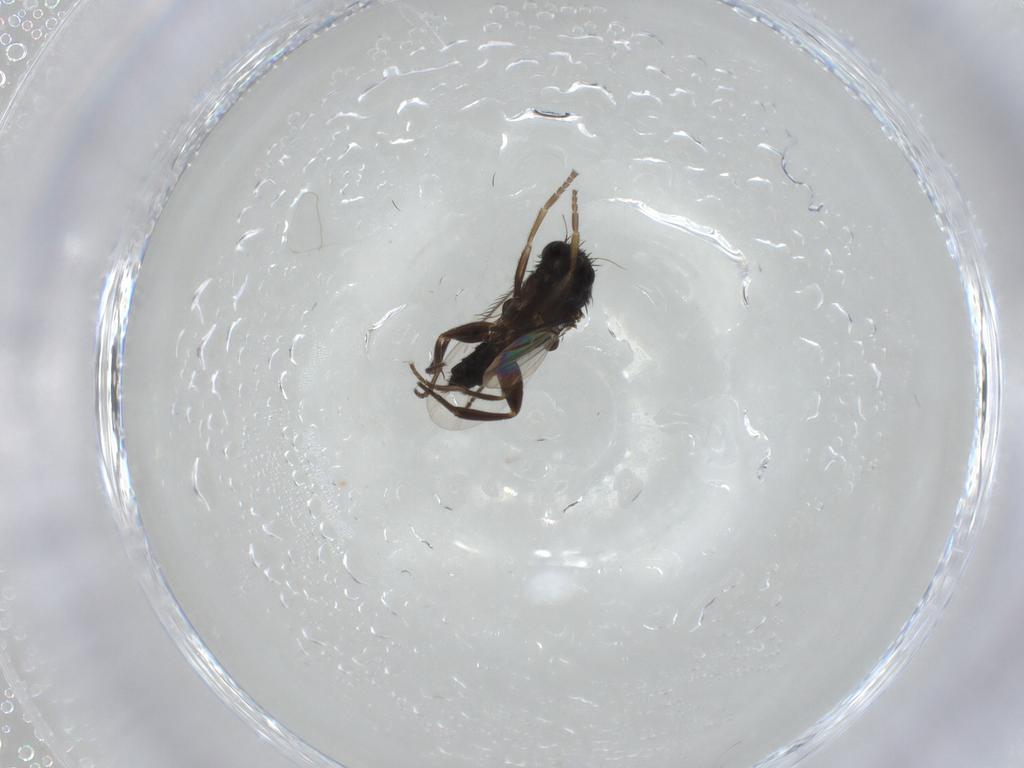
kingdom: Animalia
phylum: Arthropoda
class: Insecta
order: Diptera
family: Phoridae
